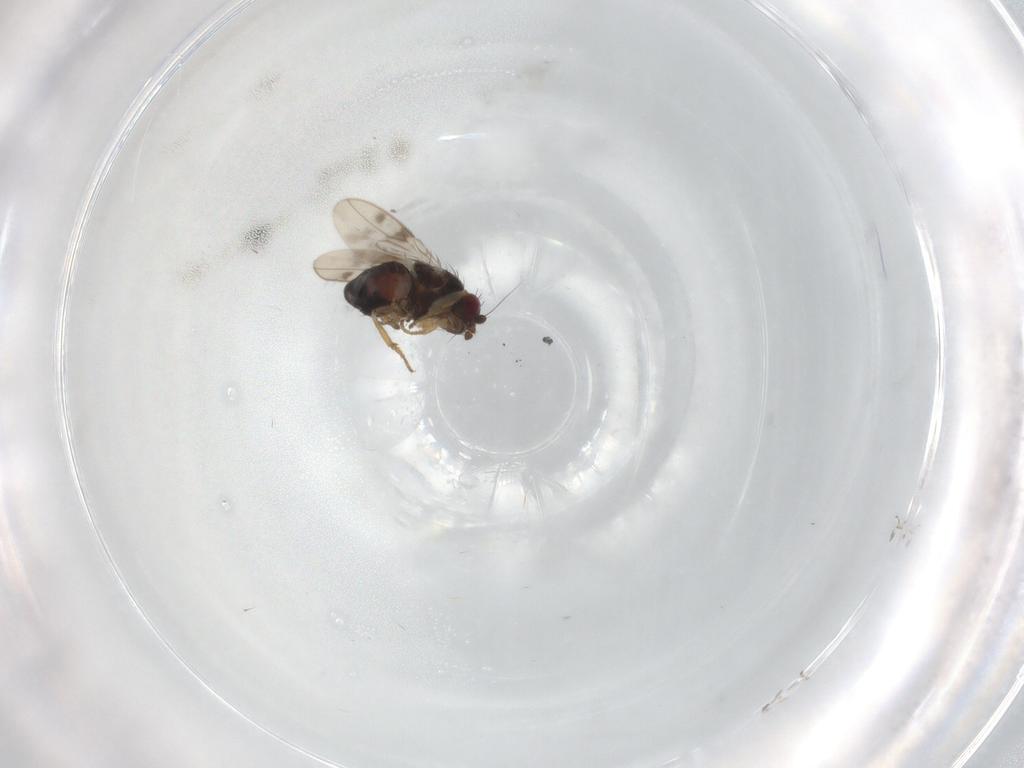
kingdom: Animalia
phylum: Arthropoda
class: Insecta
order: Diptera
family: Sphaeroceridae
